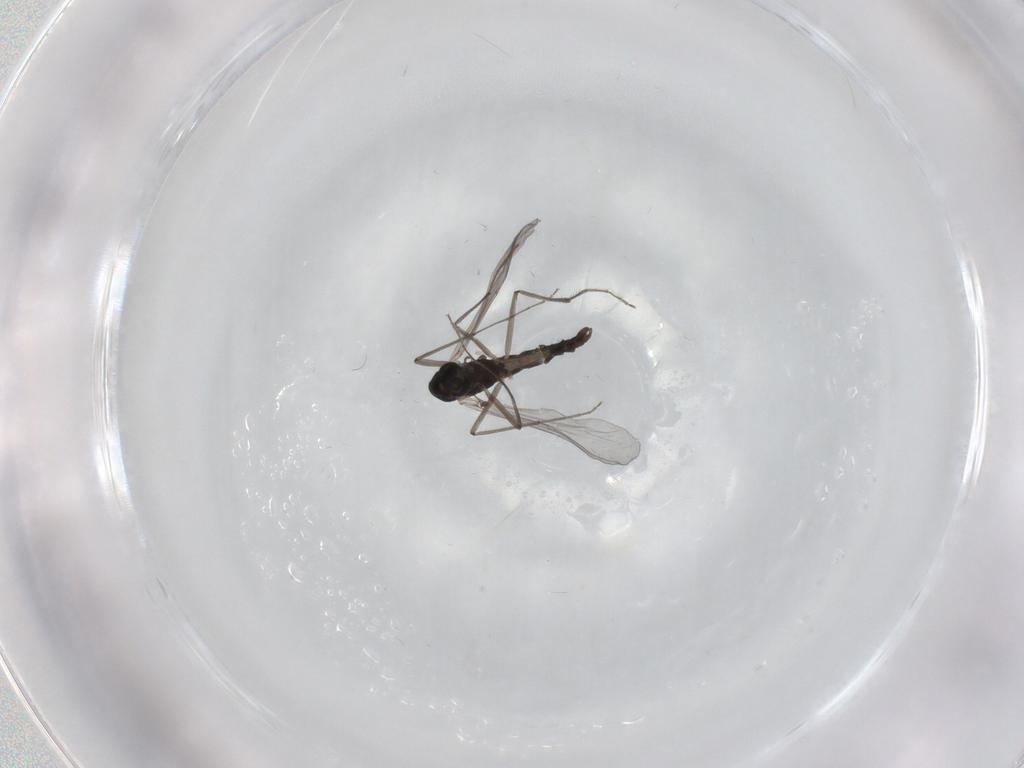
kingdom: Animalia
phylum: Arthropoda
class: Insecta
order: Diptera
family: Chironomidae
